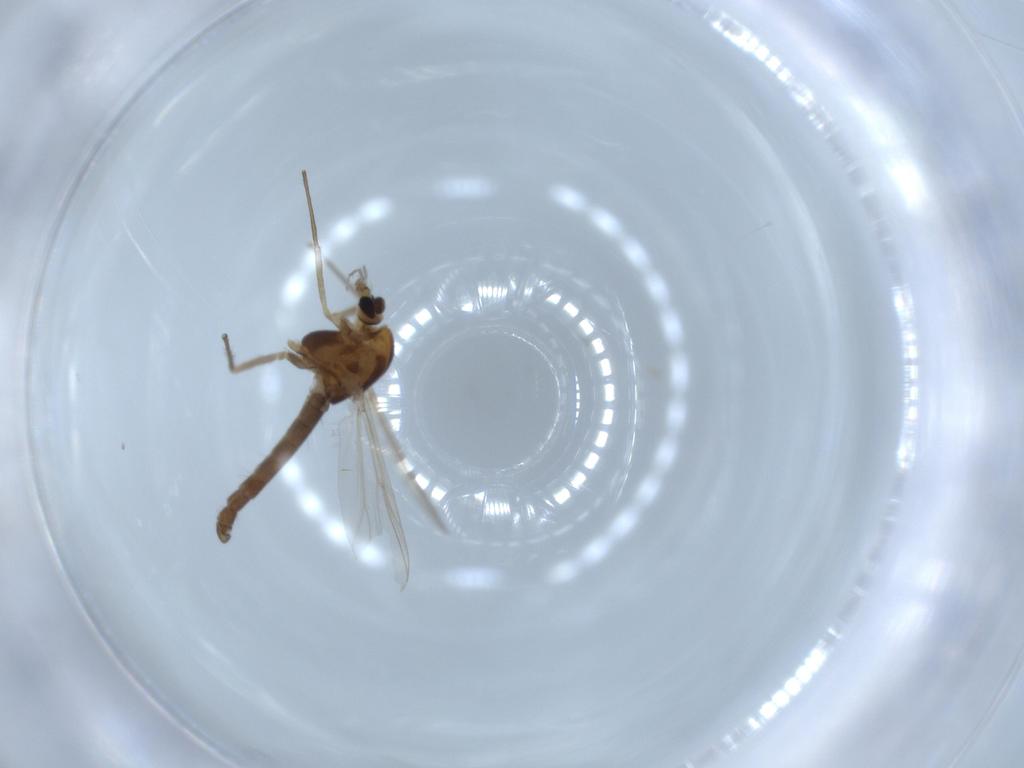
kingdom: Animalia
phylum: Arthropoda
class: Insecta
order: Diptera
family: Chironomidae
